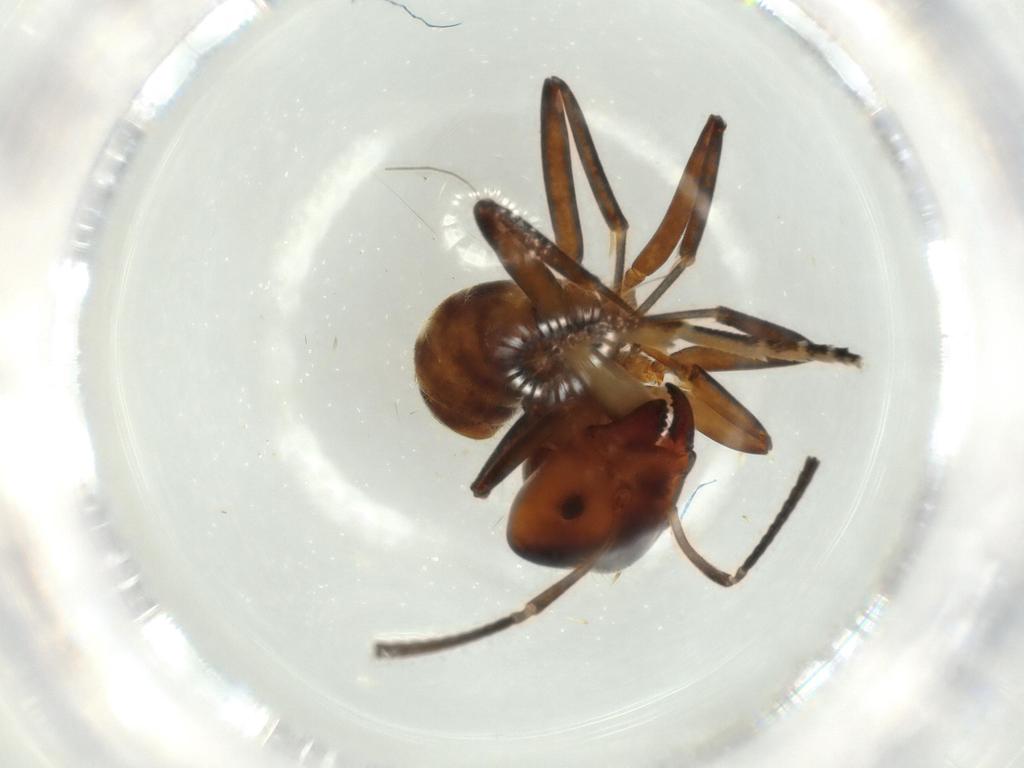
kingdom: Animalia
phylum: Arthropoda
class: Insecta
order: Hymenoptera
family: Formicidae
